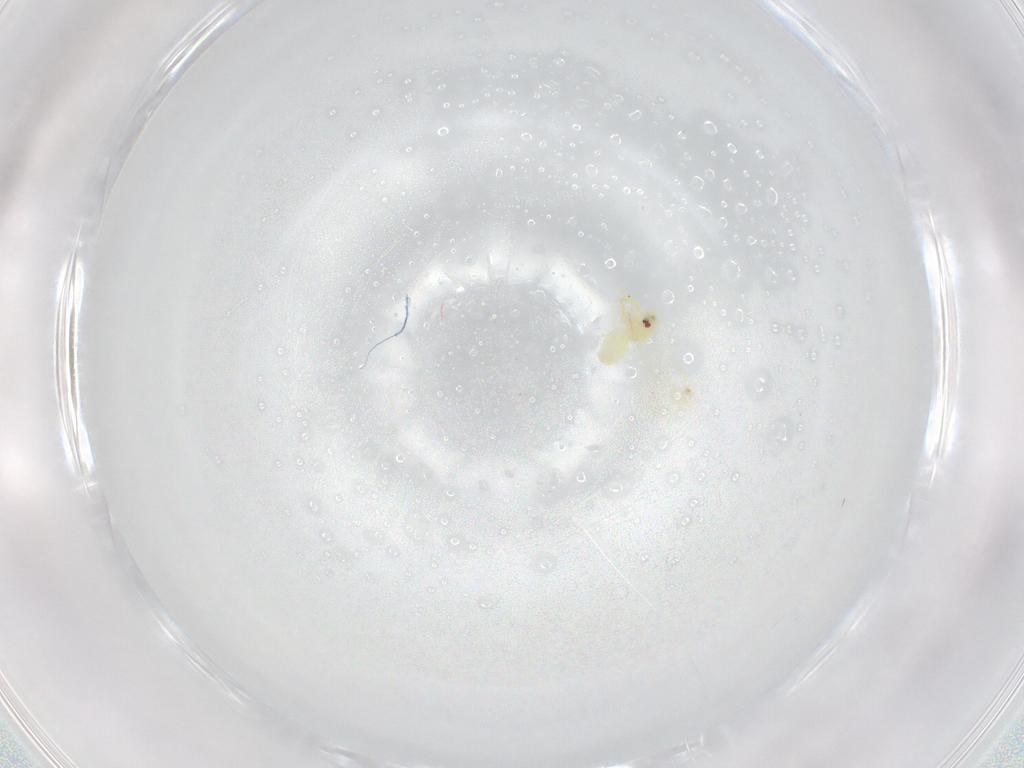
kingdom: Animalia
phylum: Arthropoda
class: Insecta
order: Hemiptera
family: Aleyrodidae
